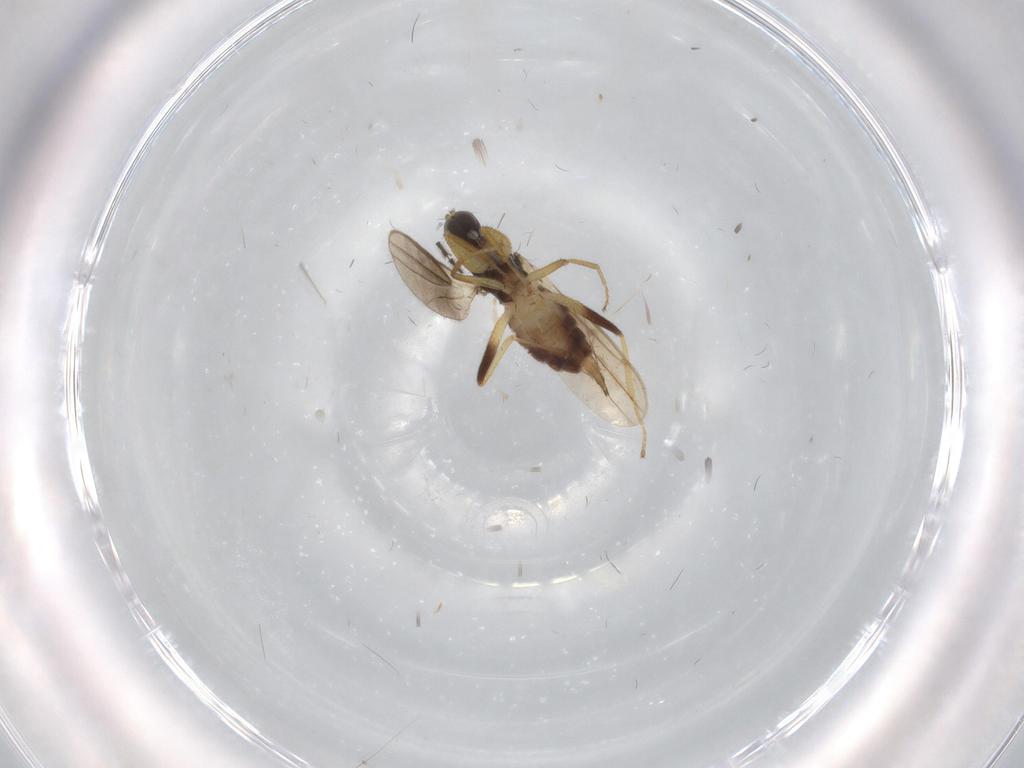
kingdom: Animalia
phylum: Arthropoda
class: Insecta
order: Diptera
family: Hybotidae
